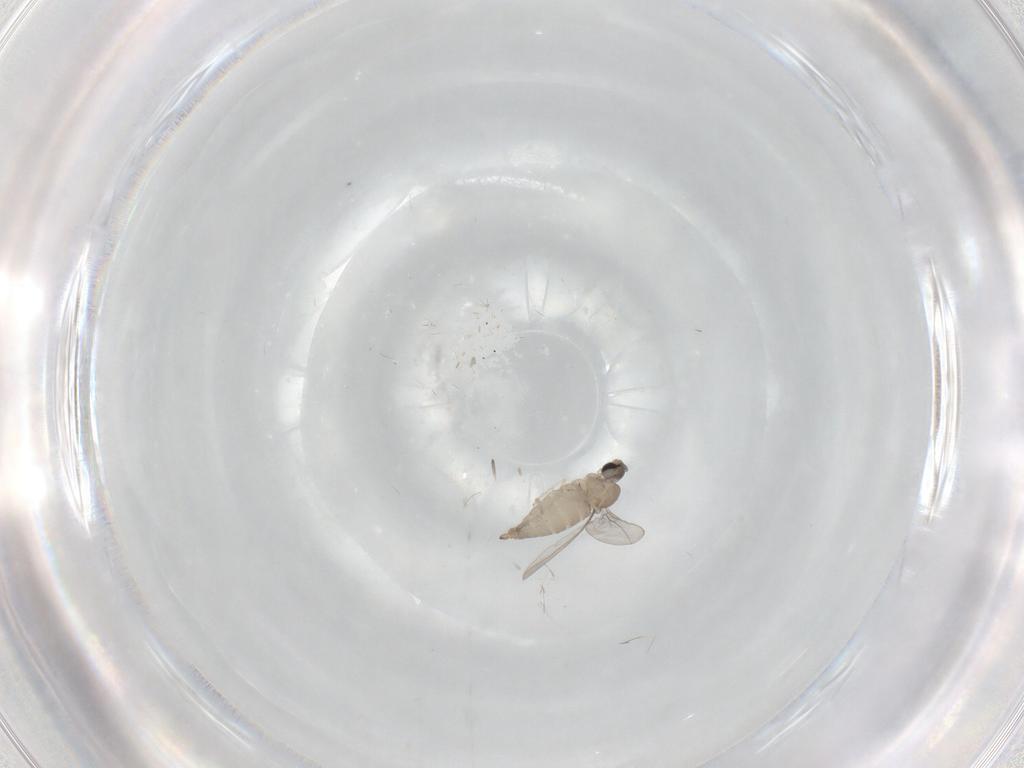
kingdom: Animalia
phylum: Arthropoda
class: Insecta
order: Diptera
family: Cecidomyiidae
